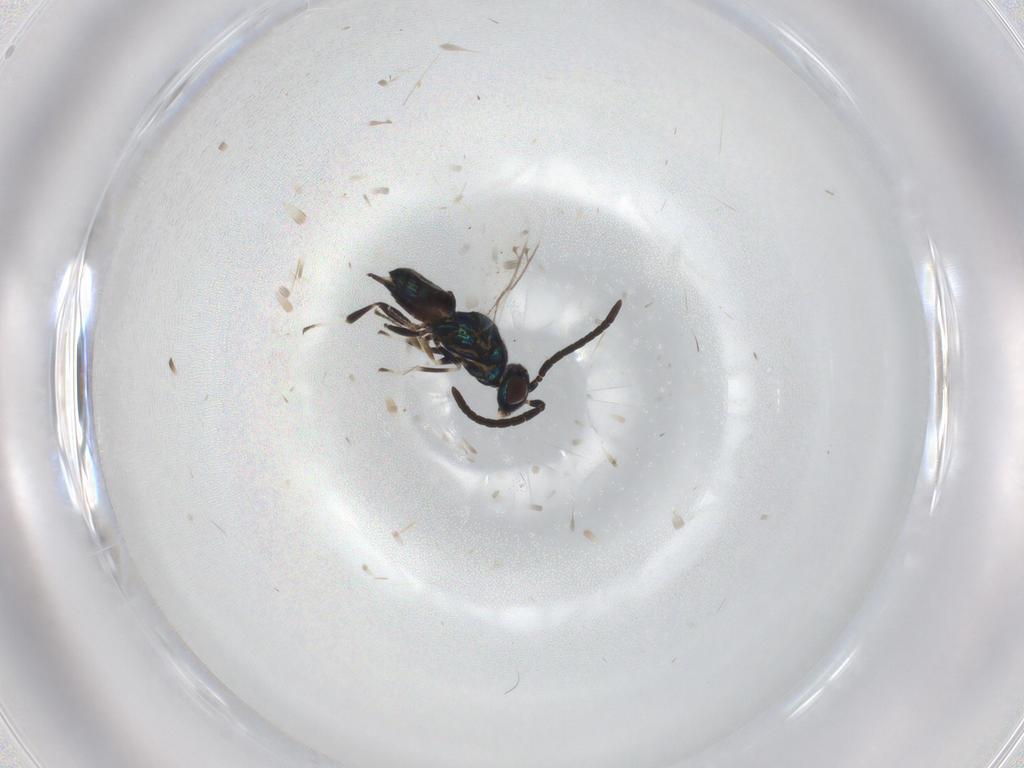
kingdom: Animalia
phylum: Arthropoda
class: Insecta
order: Hymenoptera
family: Eupelmidae
